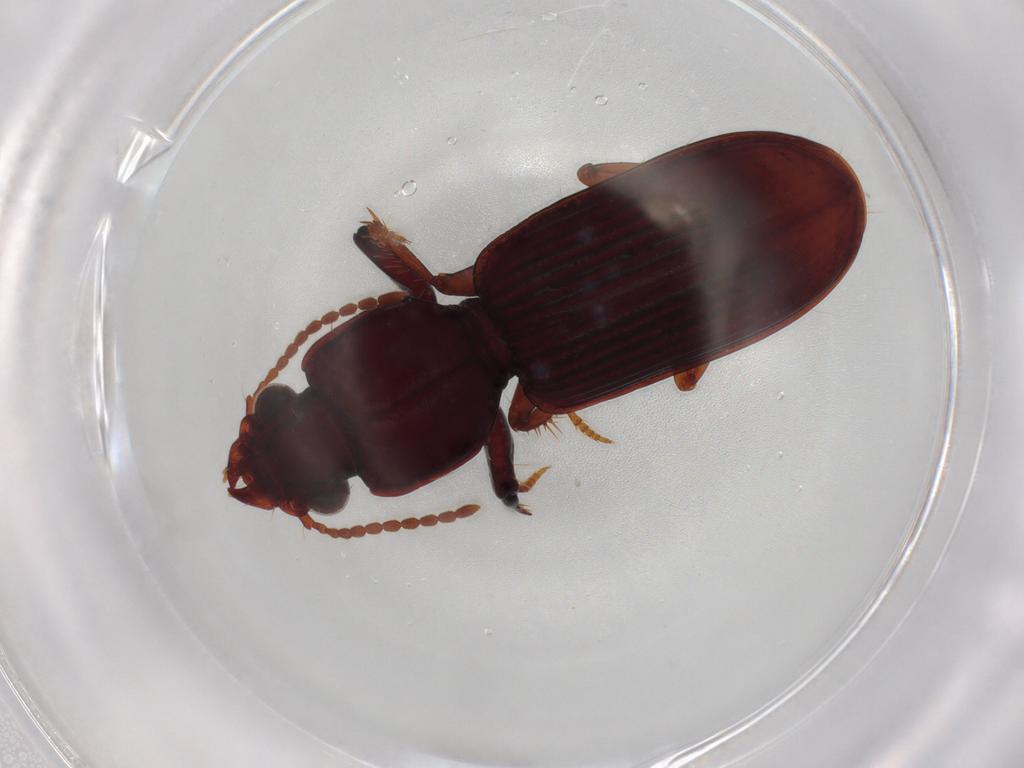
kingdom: Animalia
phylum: Arthropoda
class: Insecta
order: Coleoptera
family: Carabidae
